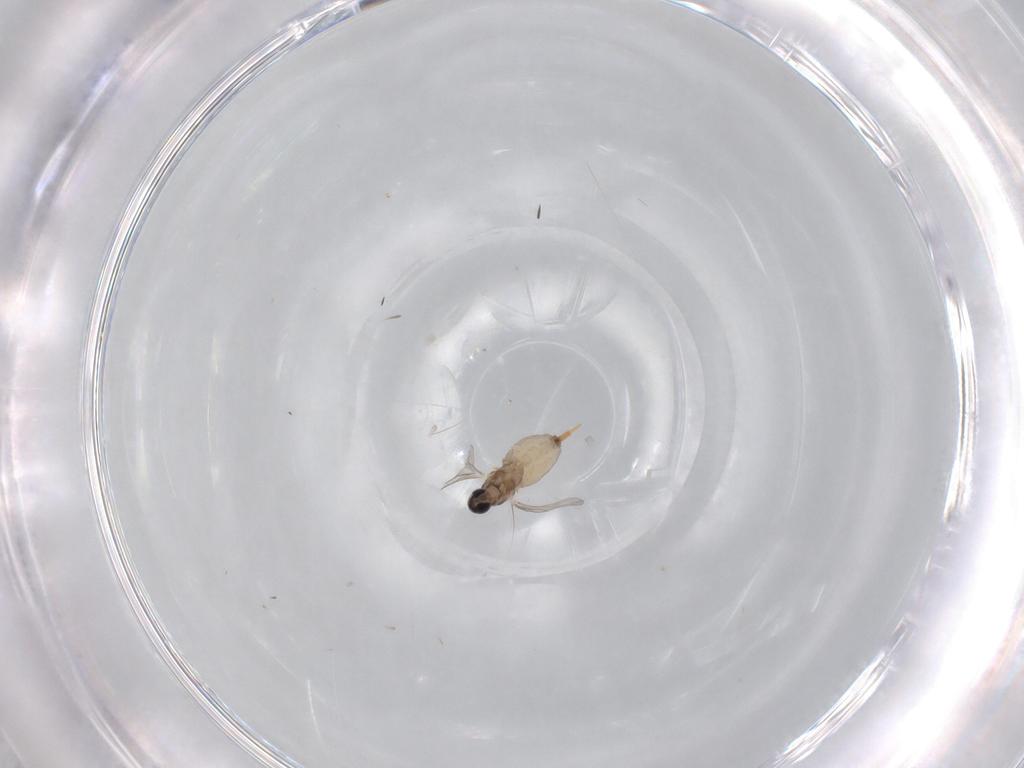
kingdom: Animalia
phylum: Arthropoda
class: Insecta
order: Diptera
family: Cecidomyiidae
